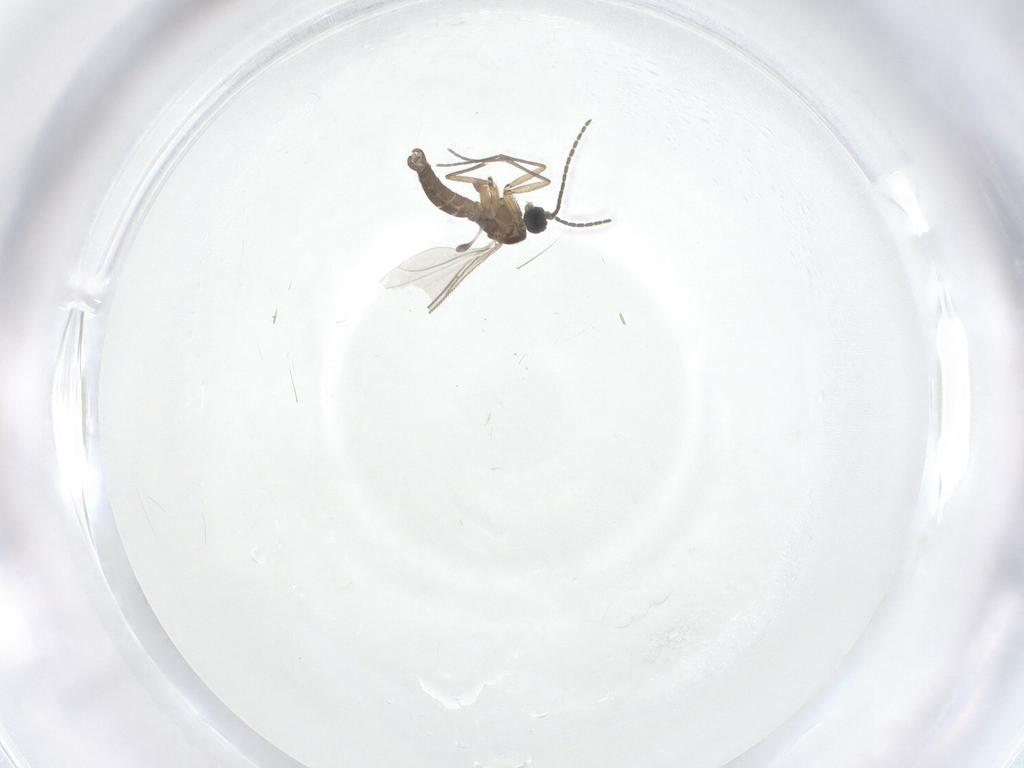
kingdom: Animalia
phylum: Arthropoda
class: Insecta
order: Diptera
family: Sciaridae
